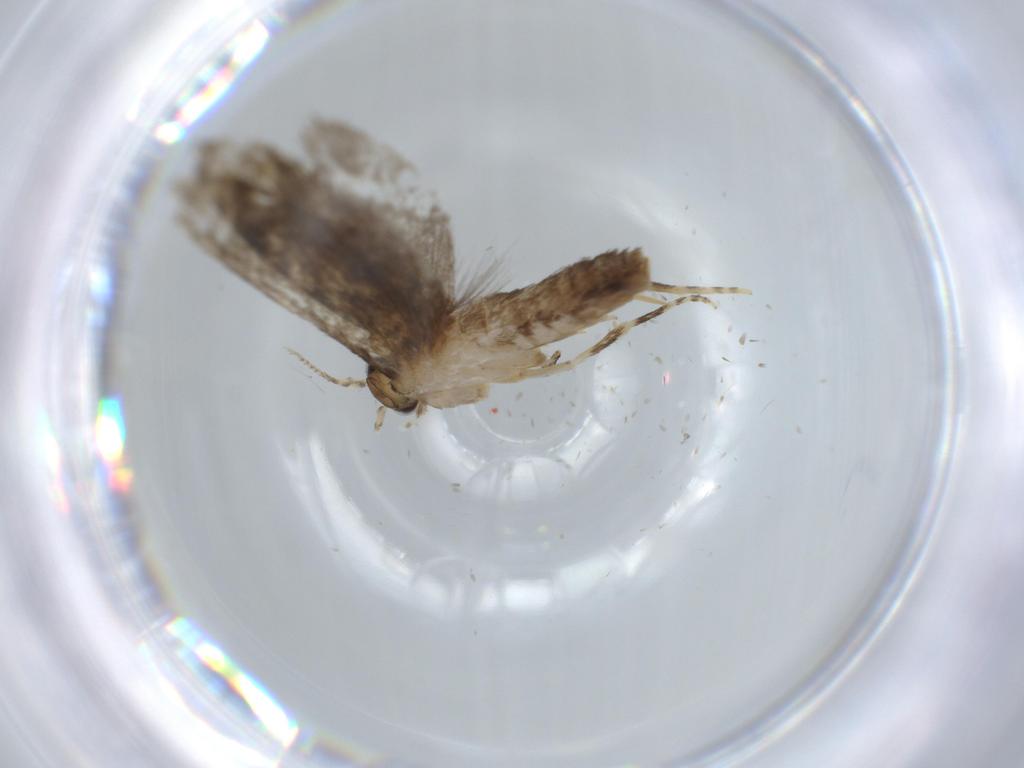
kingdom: Animalia
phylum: Arthropoda
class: Insecta
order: Lepidoptera
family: Tineidae
